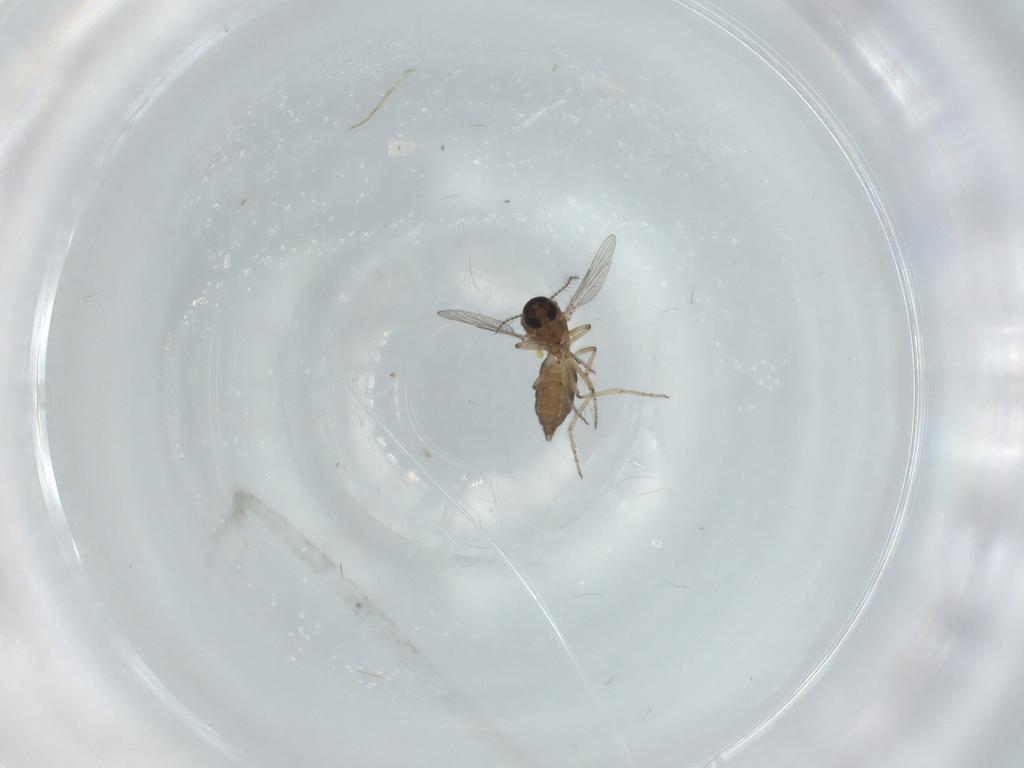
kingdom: Animalia
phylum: Arthropoda
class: Insecta
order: Diptera
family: Ceratopogonidae
